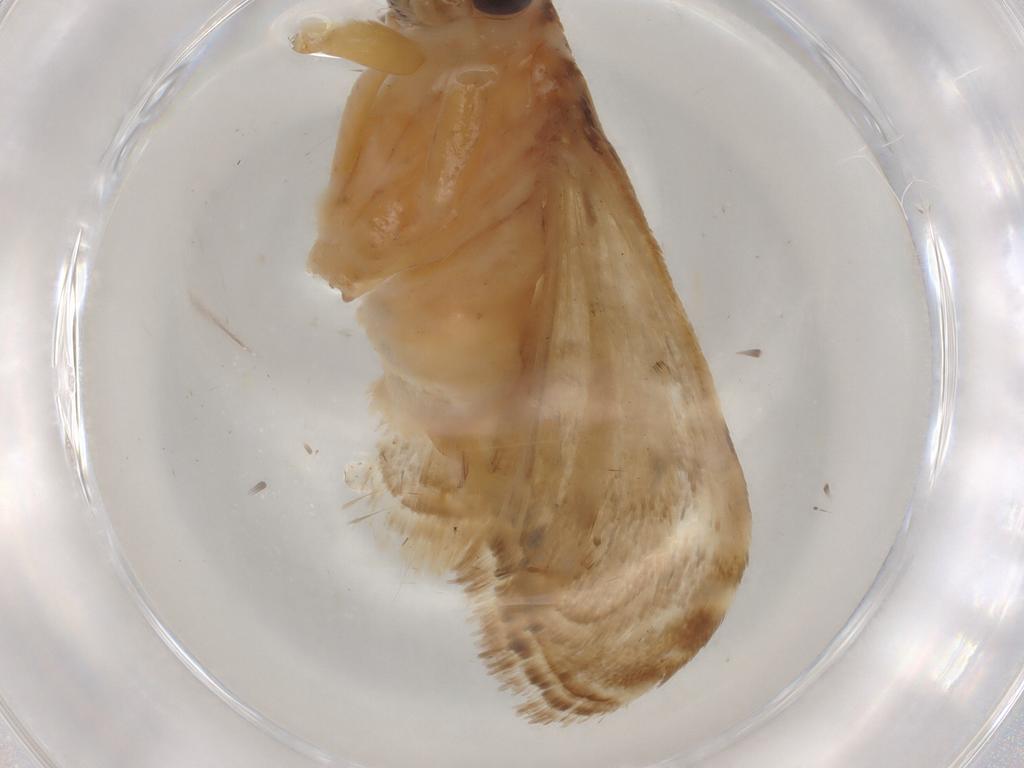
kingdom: Animalia
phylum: Arthropoda
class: Insecta
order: Lepidoptera
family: Crambidae
